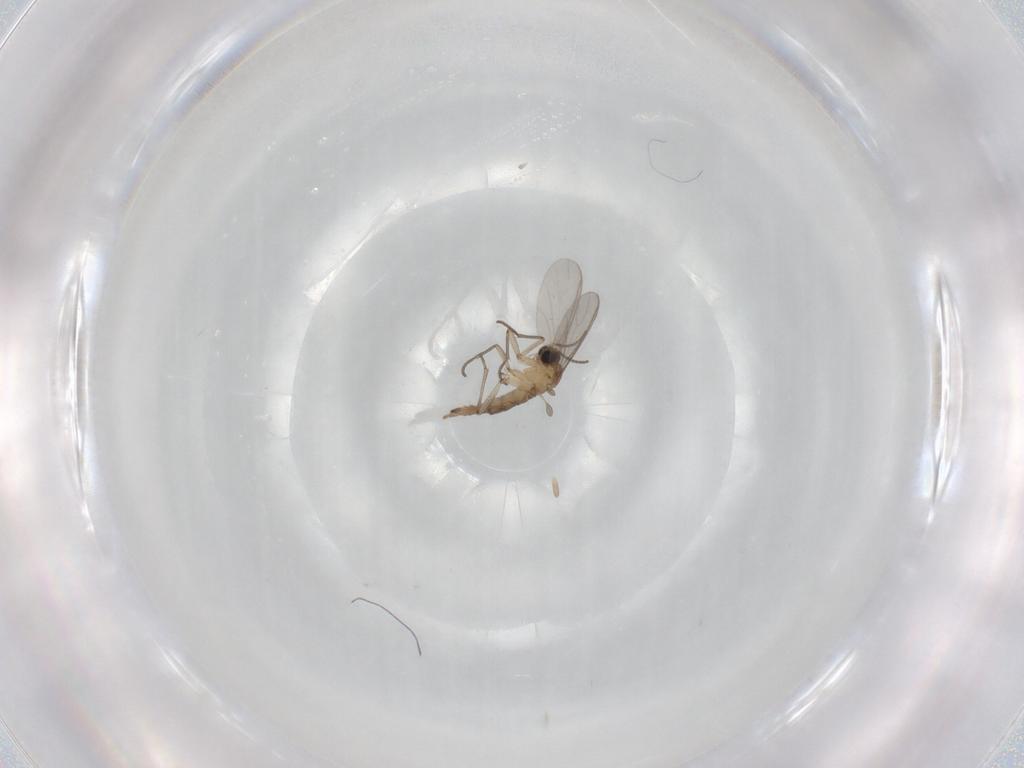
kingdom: Animalia
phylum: Arthropoda
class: Insecta
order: Diptera
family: Sciaridae
